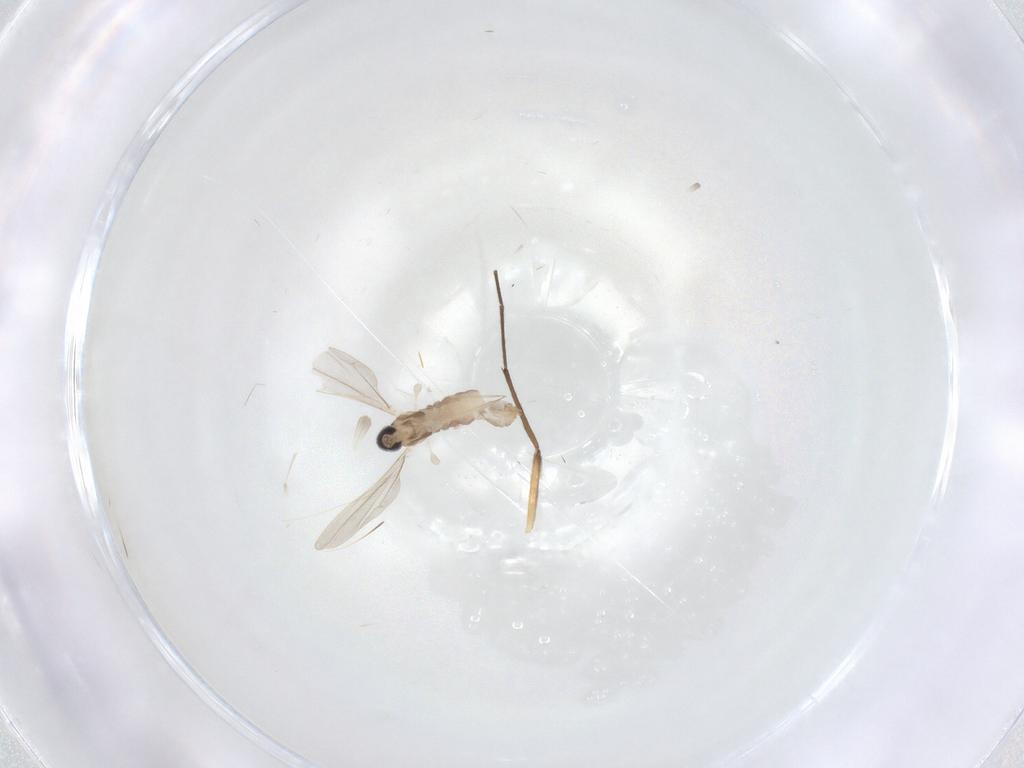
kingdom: Animalia
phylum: Arthropoda
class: Insecta
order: Diptera
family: Cecidomyiidae
